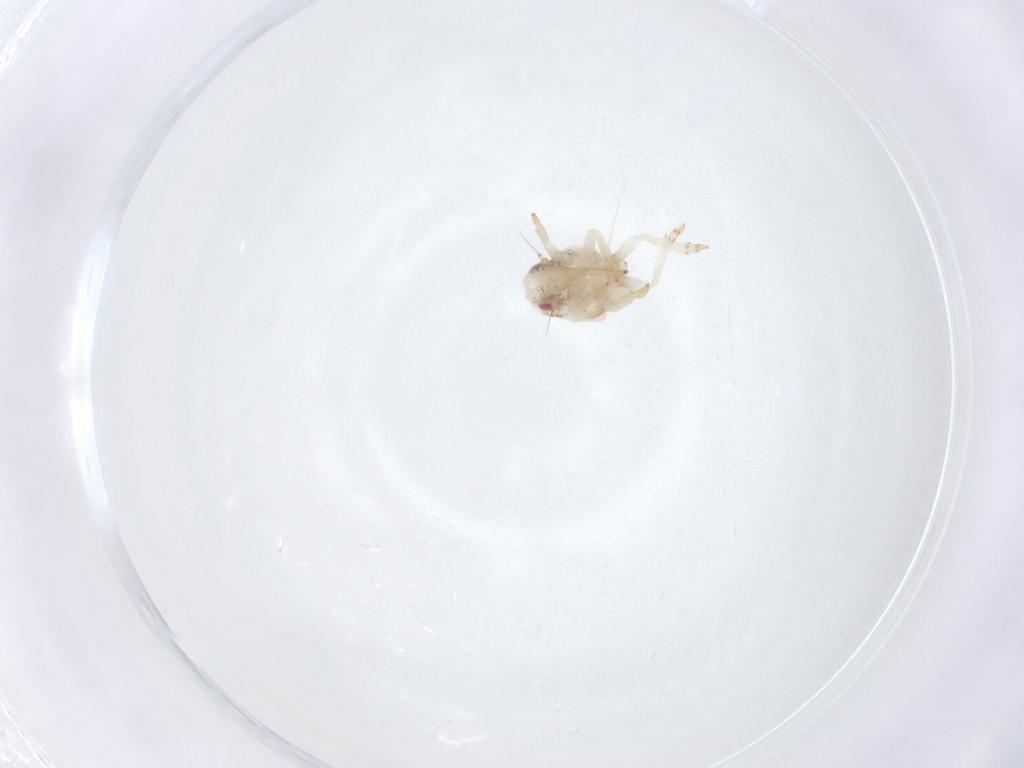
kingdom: Animalia
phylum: Arthropoda
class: Insecta
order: Hemiptera
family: Acanaloniidae
